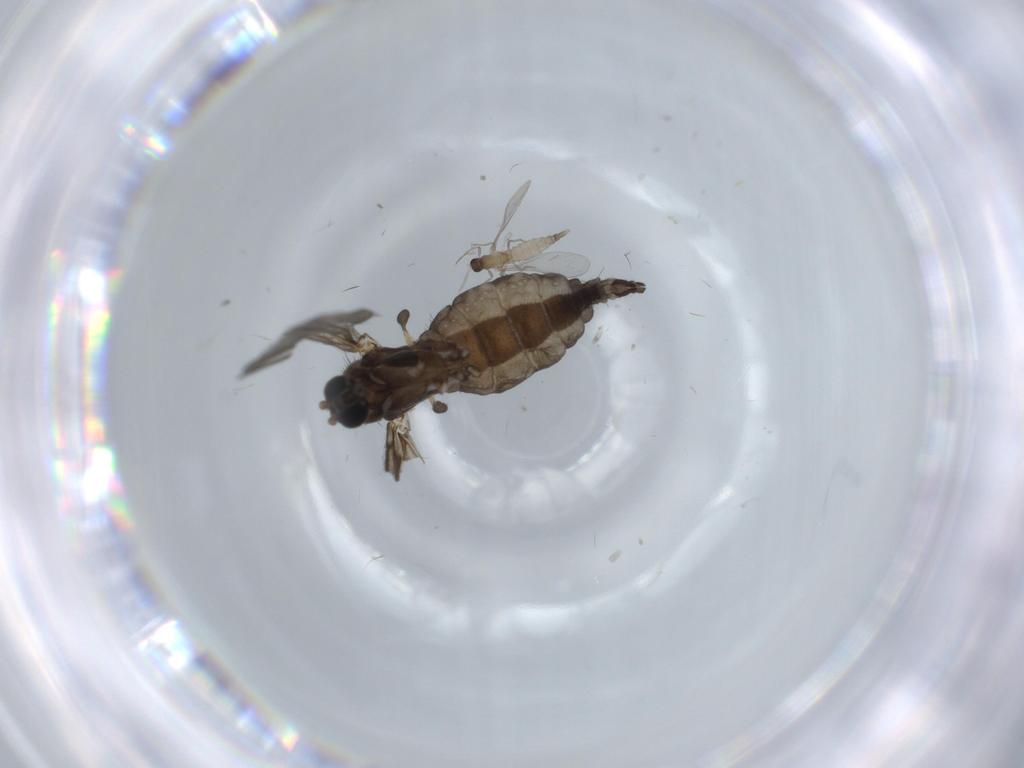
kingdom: Animalia
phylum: Arthropoda
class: Insecta
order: Diptera
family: Sciaridae
